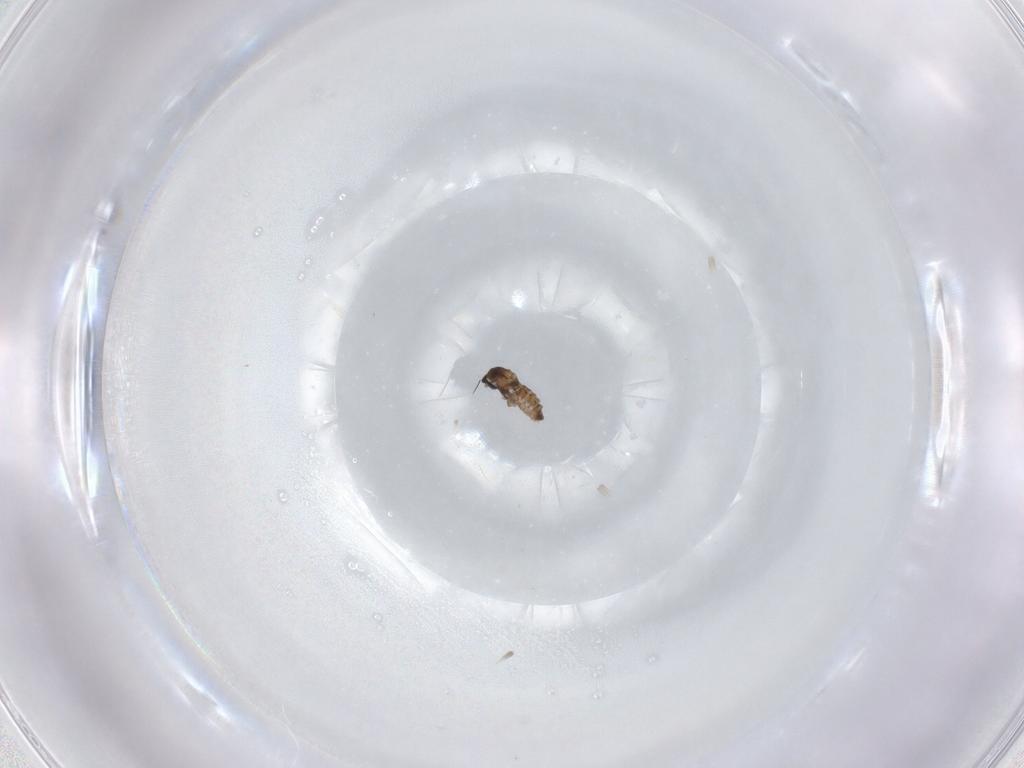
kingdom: Animalia
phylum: Arthropoda
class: Insecta
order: Diptera
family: Cecidomyiidae
